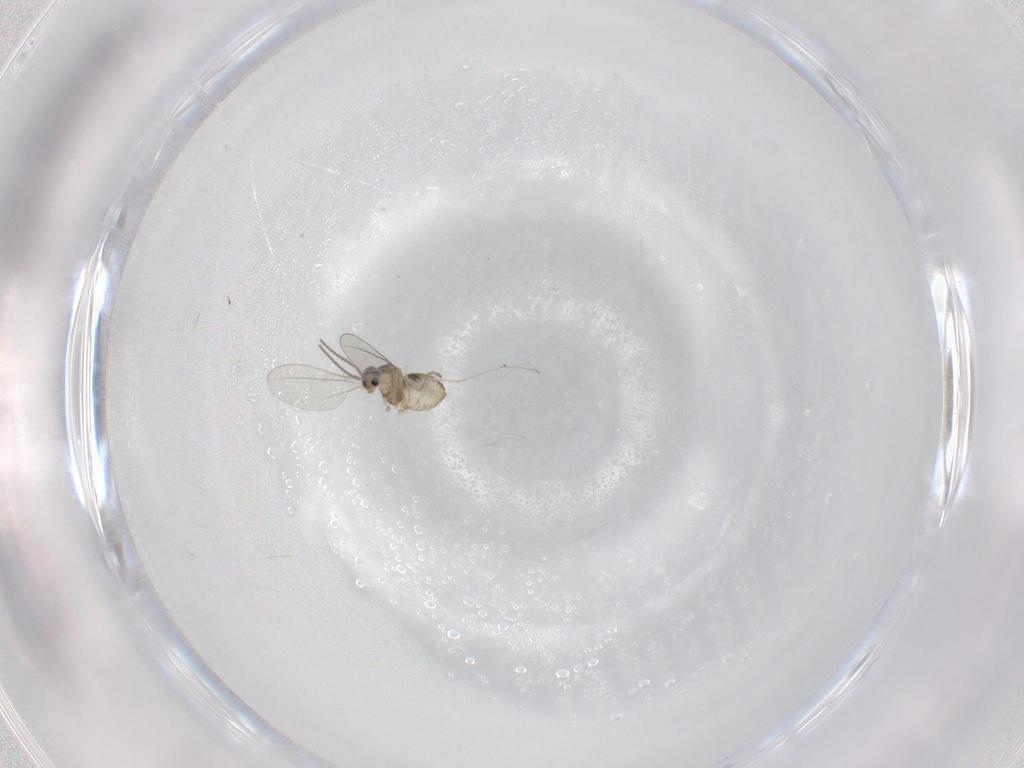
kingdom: Animalia
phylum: Arthropoda
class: Insecta
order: Diptera
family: Cecidomyiidae
